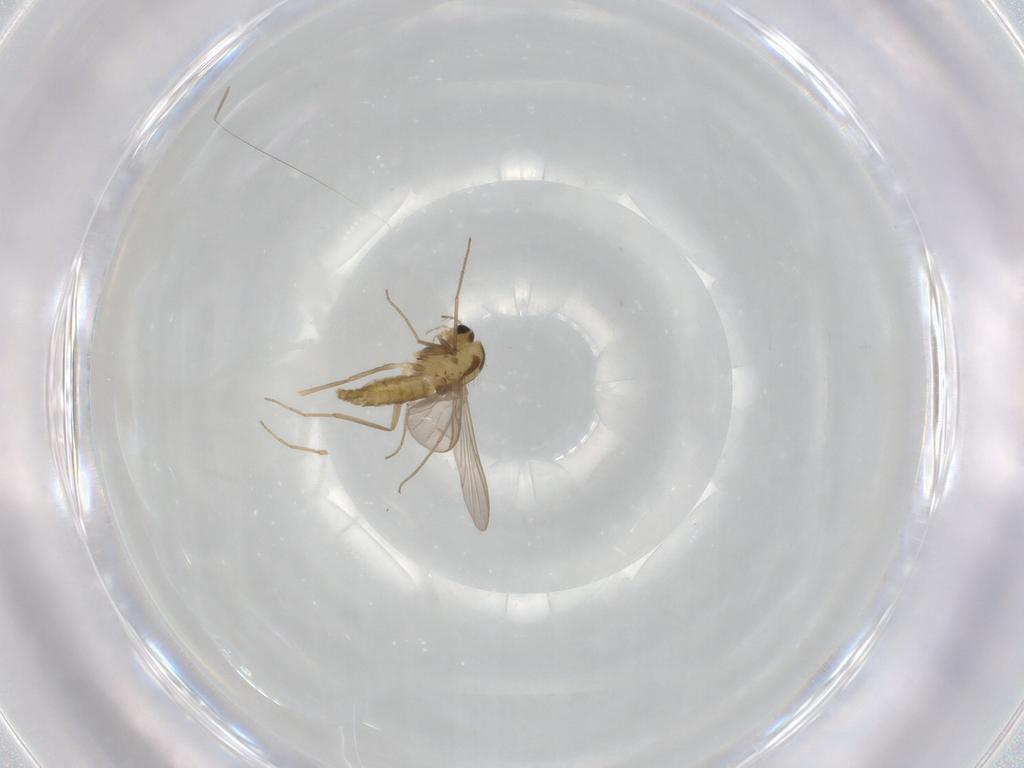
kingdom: Animalia
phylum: Arthropoda
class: Insecta
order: Diptera
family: Chironomidae
